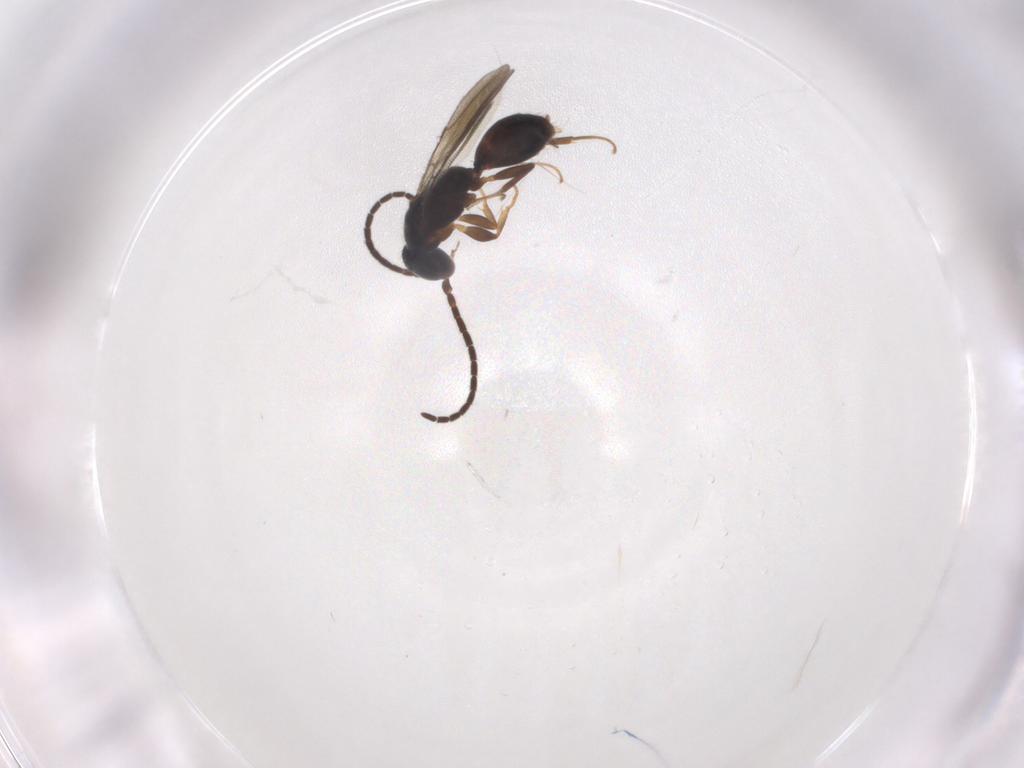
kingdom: Animalia
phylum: Arthropoda
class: Insecta
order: Hymenoptera
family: Bethylidae
